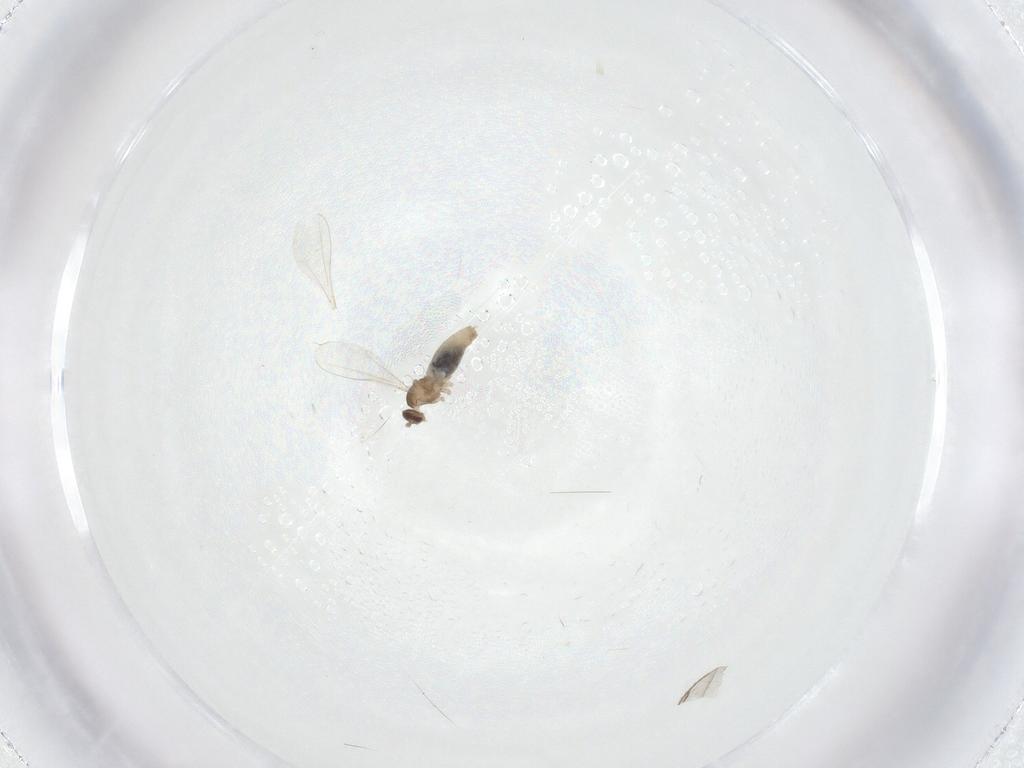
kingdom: Animalia
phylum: Arthropoda
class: Insecta
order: Diptera
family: Cecidomyiidae
